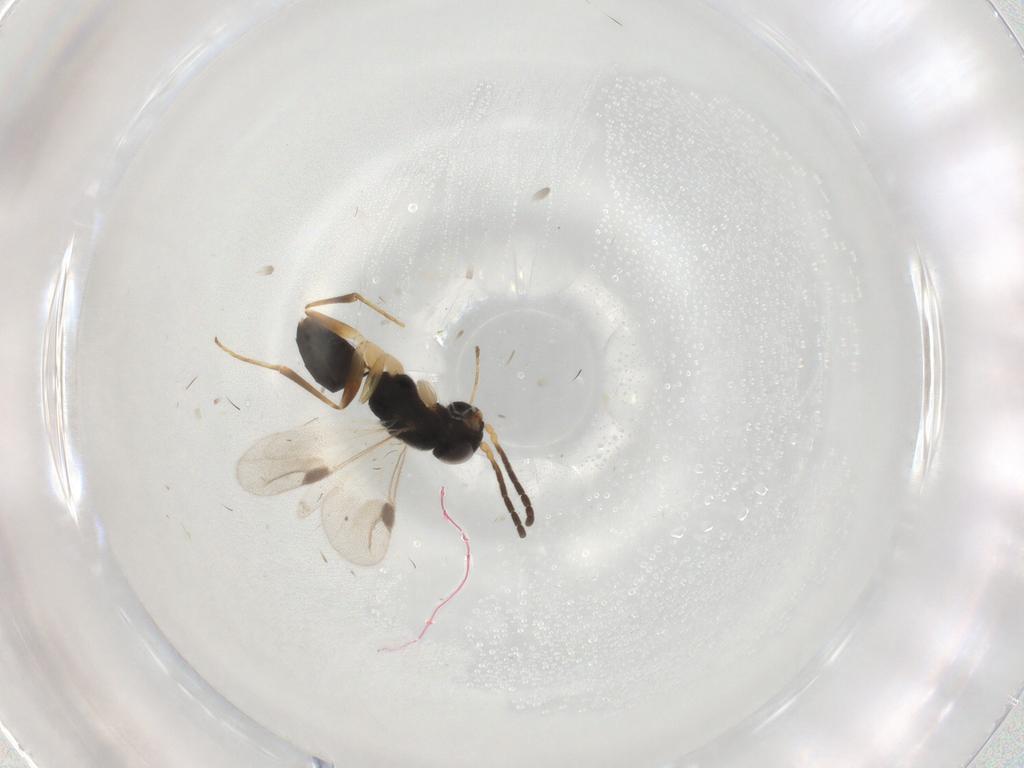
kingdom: Animalia
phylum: Arthropoda
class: Insecta
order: Hymenoptera
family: Dryinidae
